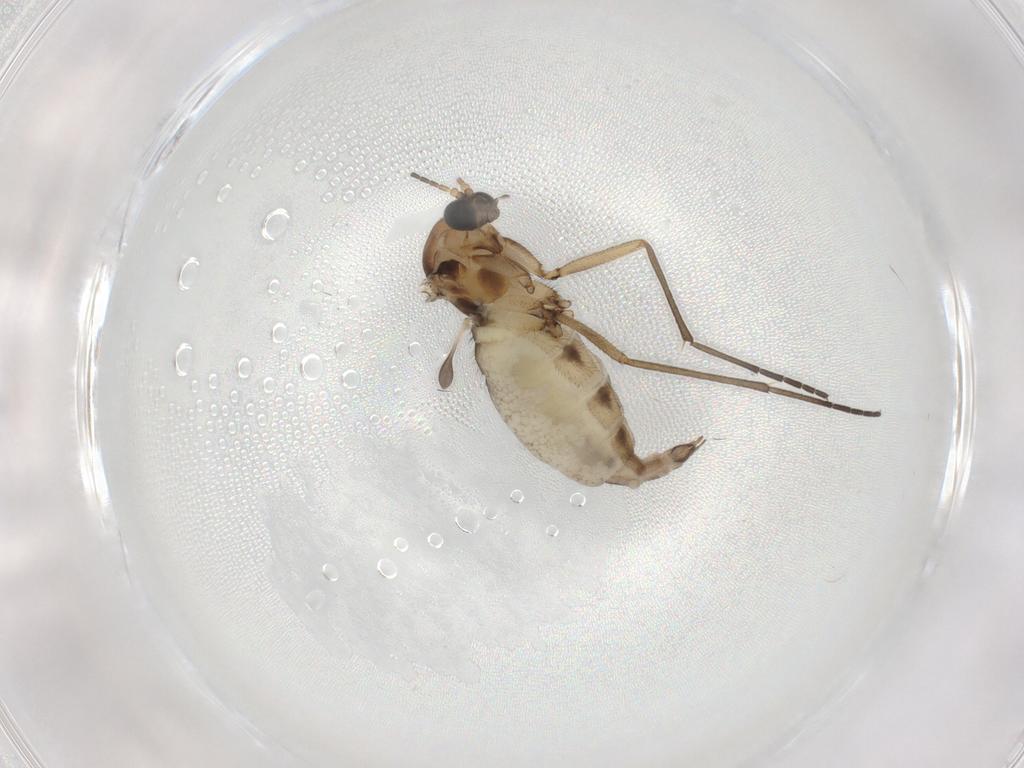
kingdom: Animalia
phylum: Arthropoda
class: Insecta
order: Diptera
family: Sciaridae
